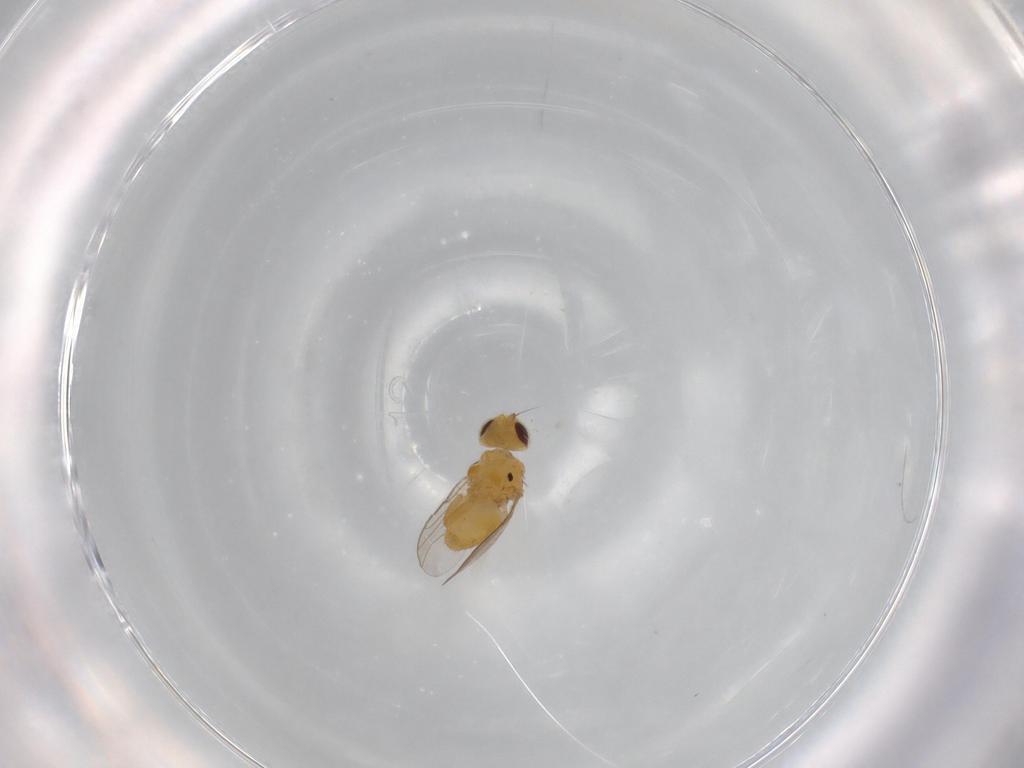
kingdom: Animalia
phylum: Arthropoda
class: Insecta
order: Diptera
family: Chloropidae
